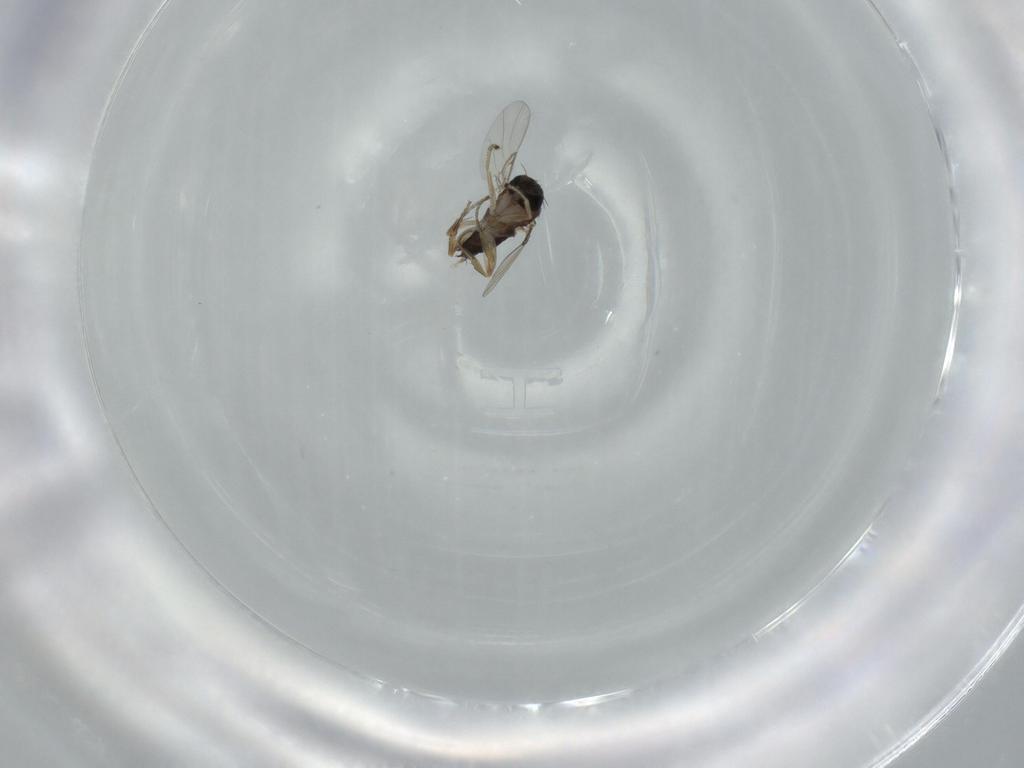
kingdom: Animalia
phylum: Arthropoda
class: Insecta
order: Diptera
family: Phoridae
